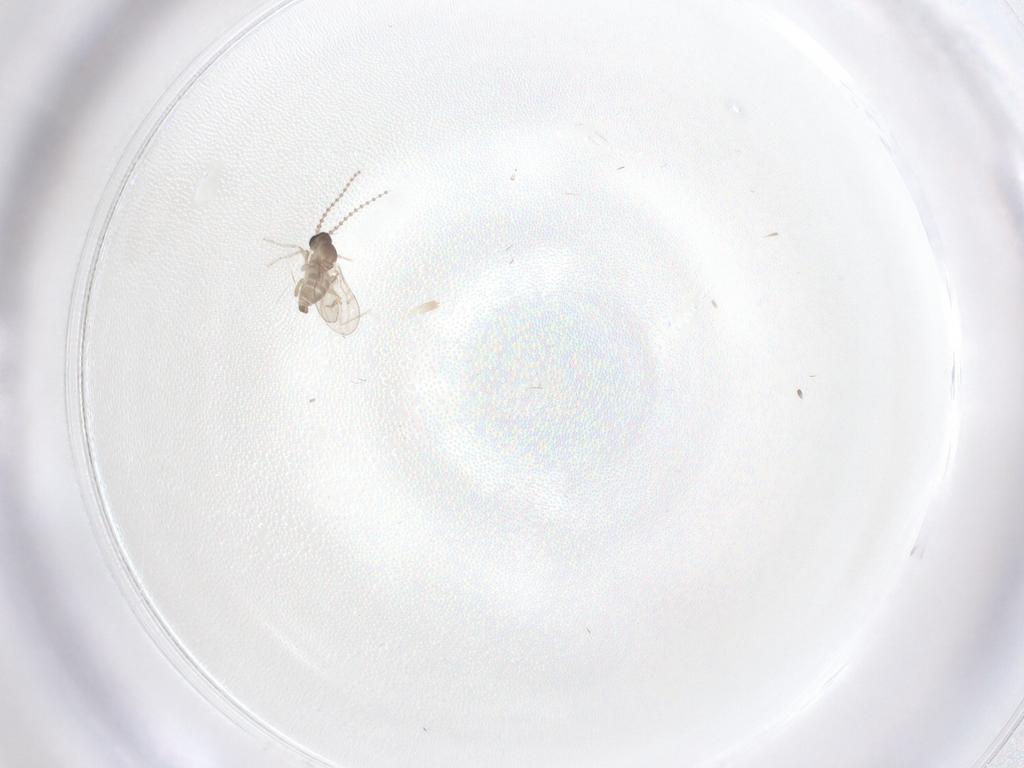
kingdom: Animalia
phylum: Arthropoda
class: Insecta
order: Diptera
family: Cecidomyiidae
